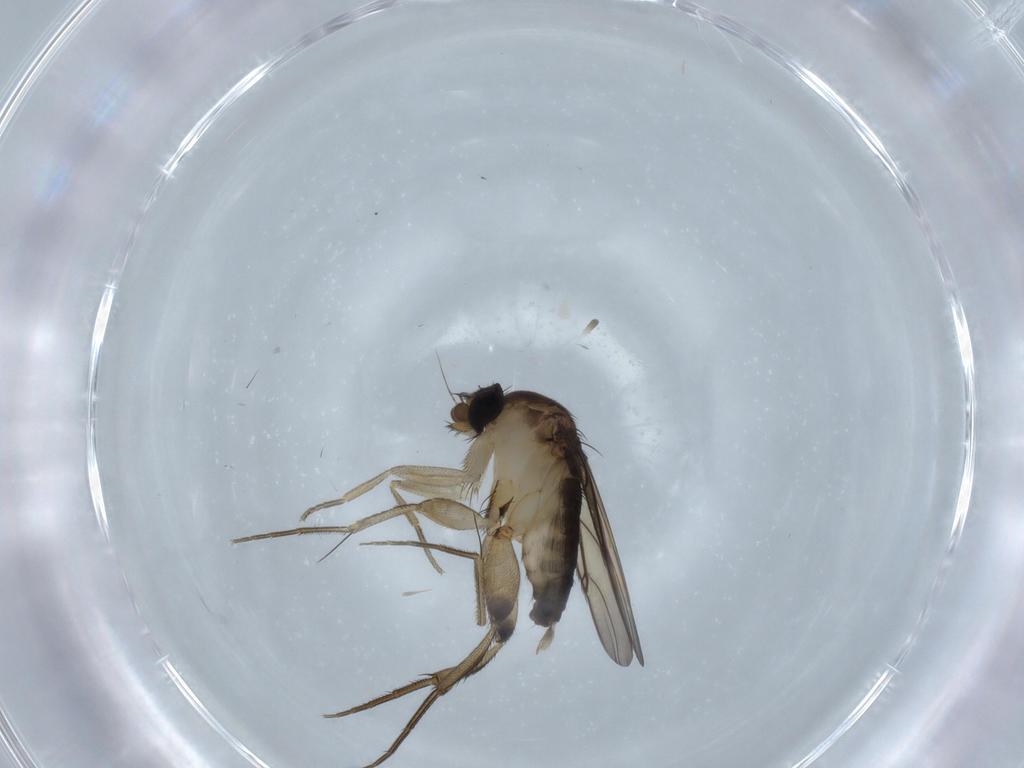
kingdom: Animalia
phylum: Arthropoda
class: Insecta
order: Diptera
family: Phoridae
